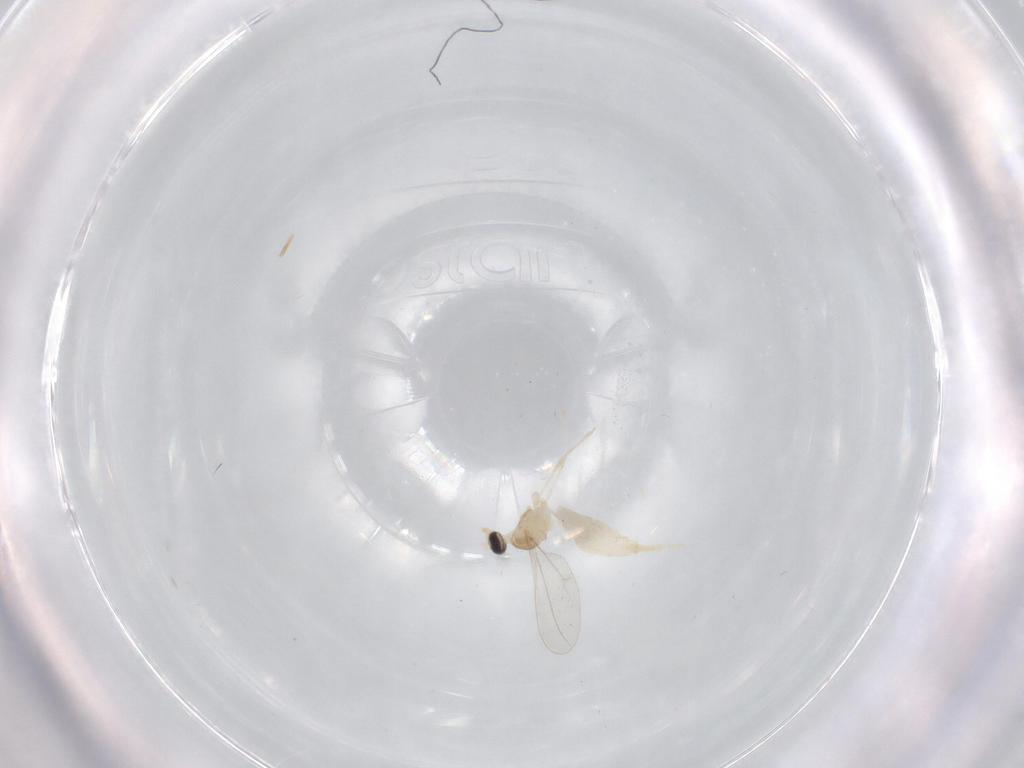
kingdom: Animalia
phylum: Arthropoda
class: Insecta
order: Diptera
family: Cecidomyiidae
